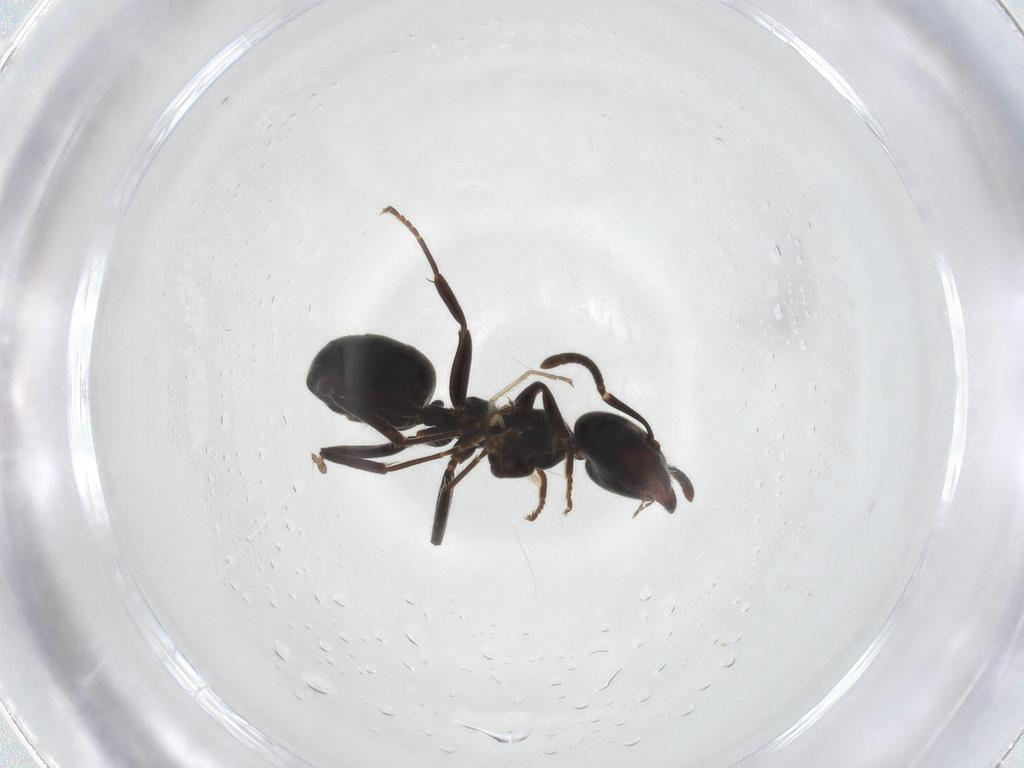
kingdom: Animalia
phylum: Arthropoda
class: Insecta
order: Hymenoptera
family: Formicidae
